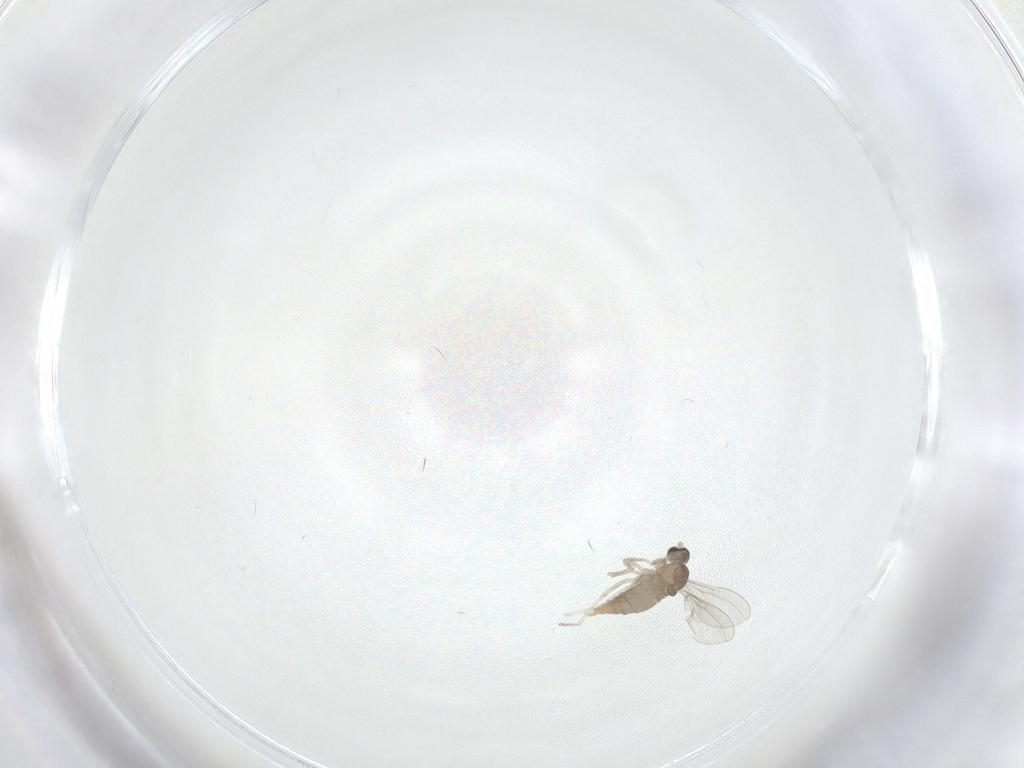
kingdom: Animalia
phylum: Arthropoda
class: Insecta
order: Diptera
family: Cecidomyiidae
